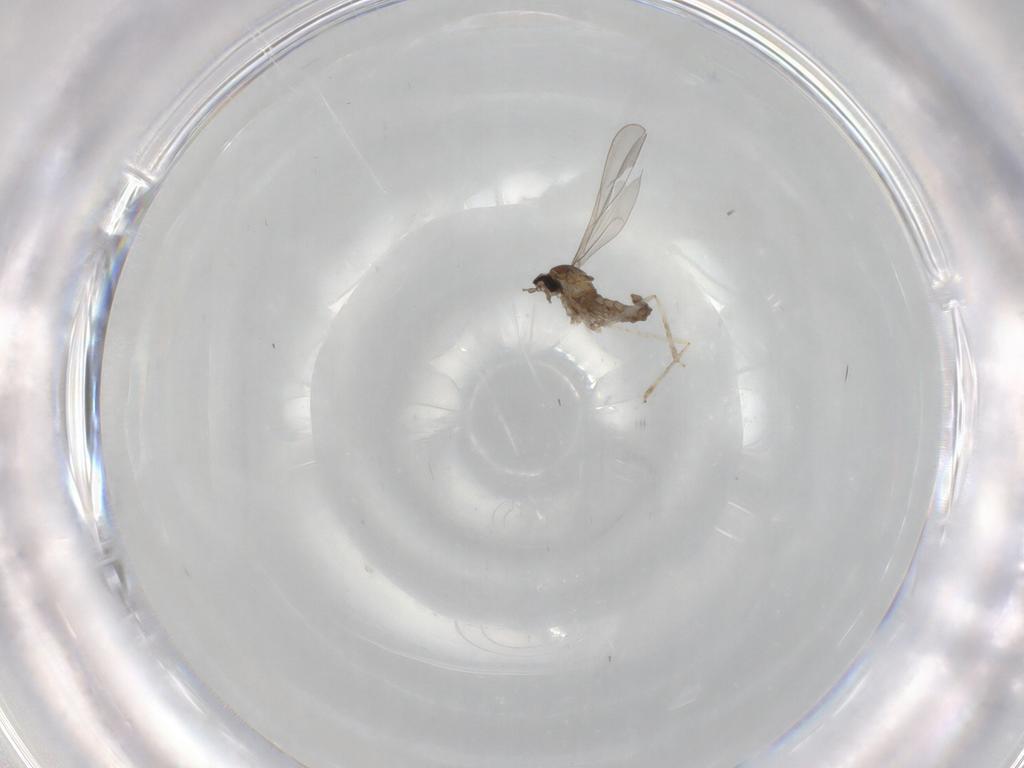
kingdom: Animalia
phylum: Arthropoda
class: Insecta
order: Diptera
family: Cecidomyiidae
